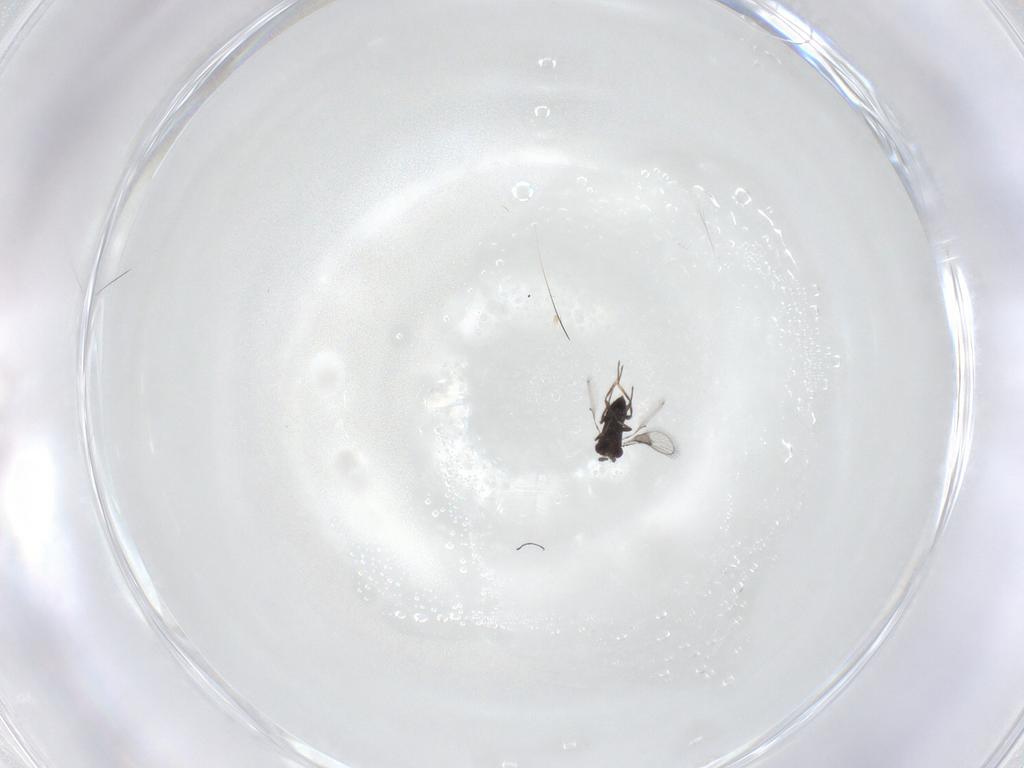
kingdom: Animalia
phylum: Arthropoda
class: Insecta
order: Hymenoptera
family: Trichogrammatidae
